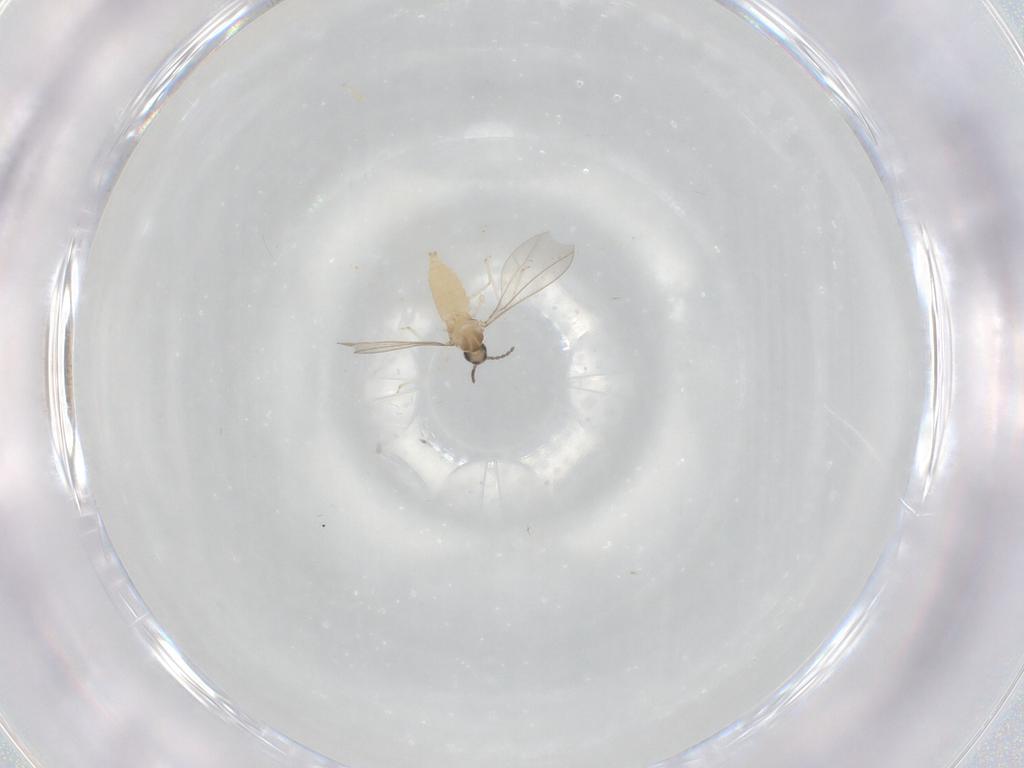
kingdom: Animalia
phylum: Arthropoda
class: Insecta
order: Diptera
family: Cecidomyiidae
